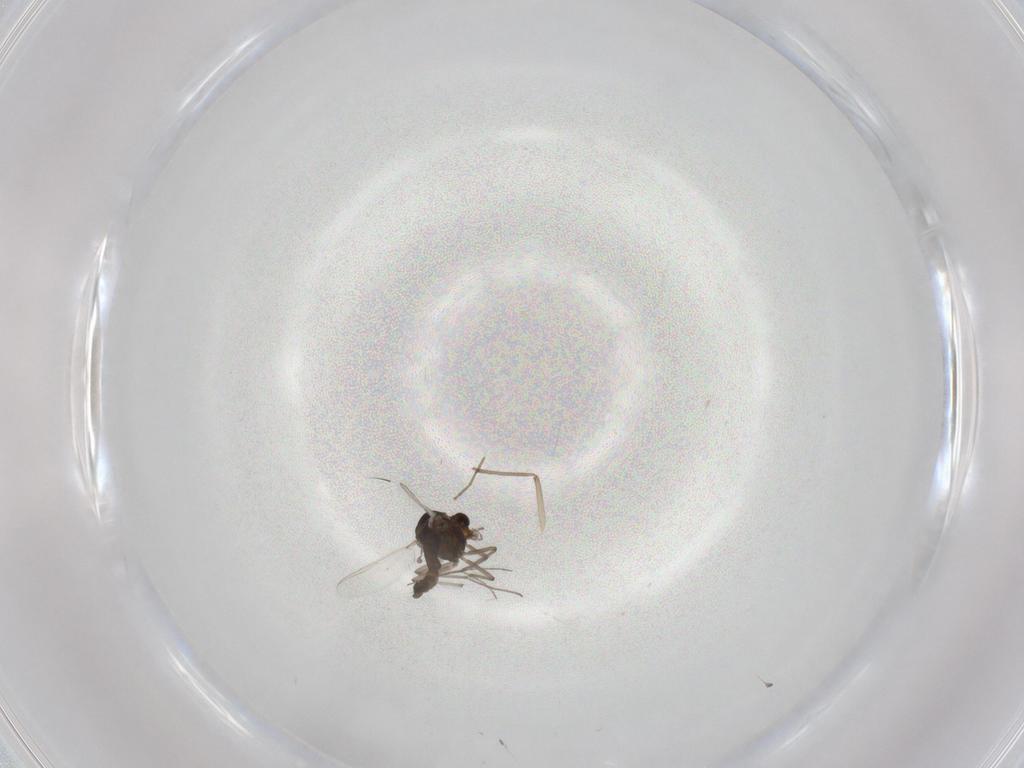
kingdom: Animalia
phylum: Arthropoda
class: Insecta
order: Diptera
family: Chironomidae
